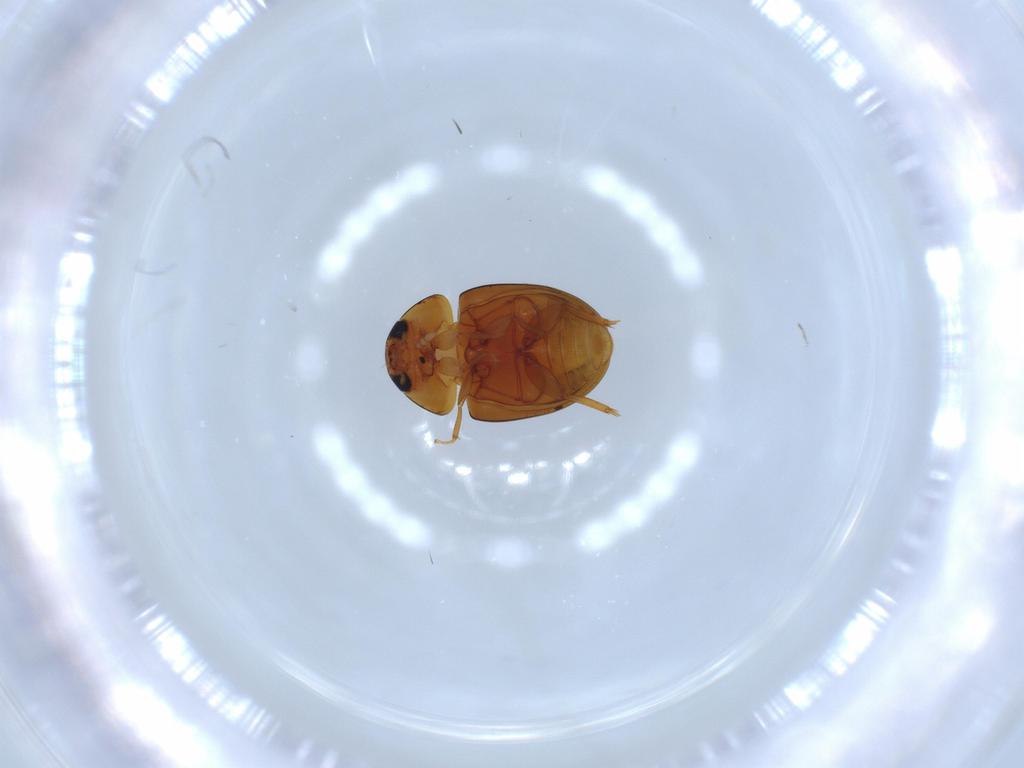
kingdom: Animalia
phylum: Arthropoda
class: Insecta
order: Coleoptera
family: Phalacridae
